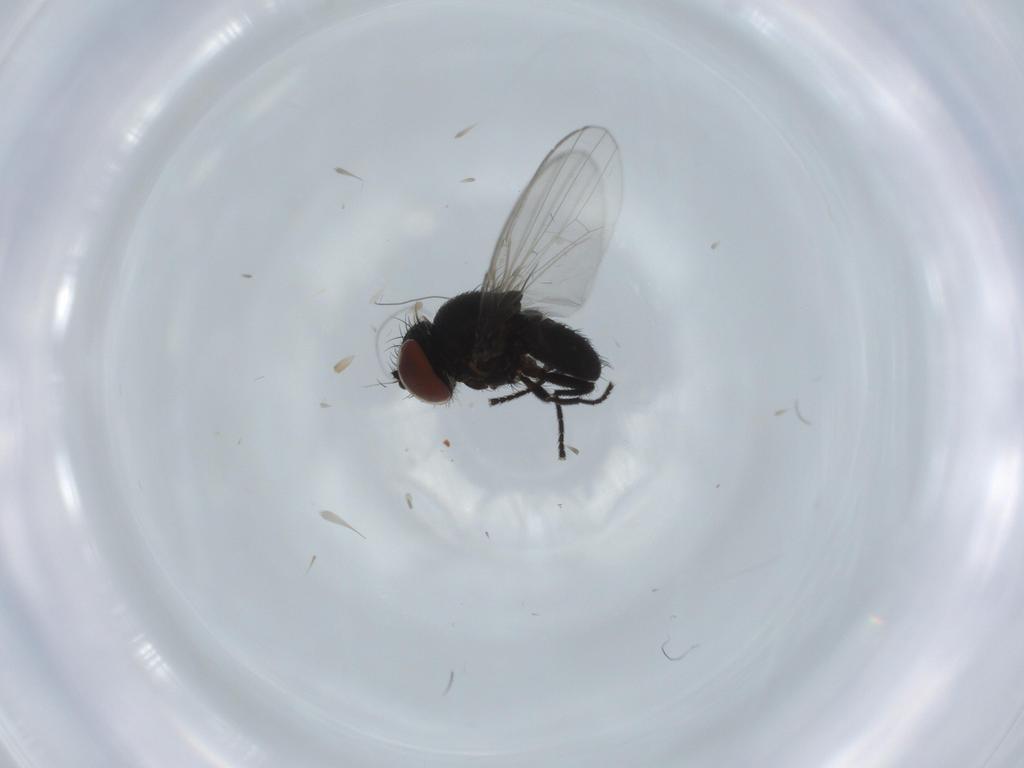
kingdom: Animalia
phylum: Arthropoda
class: Insecta
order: Diptera
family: Milichiidae
